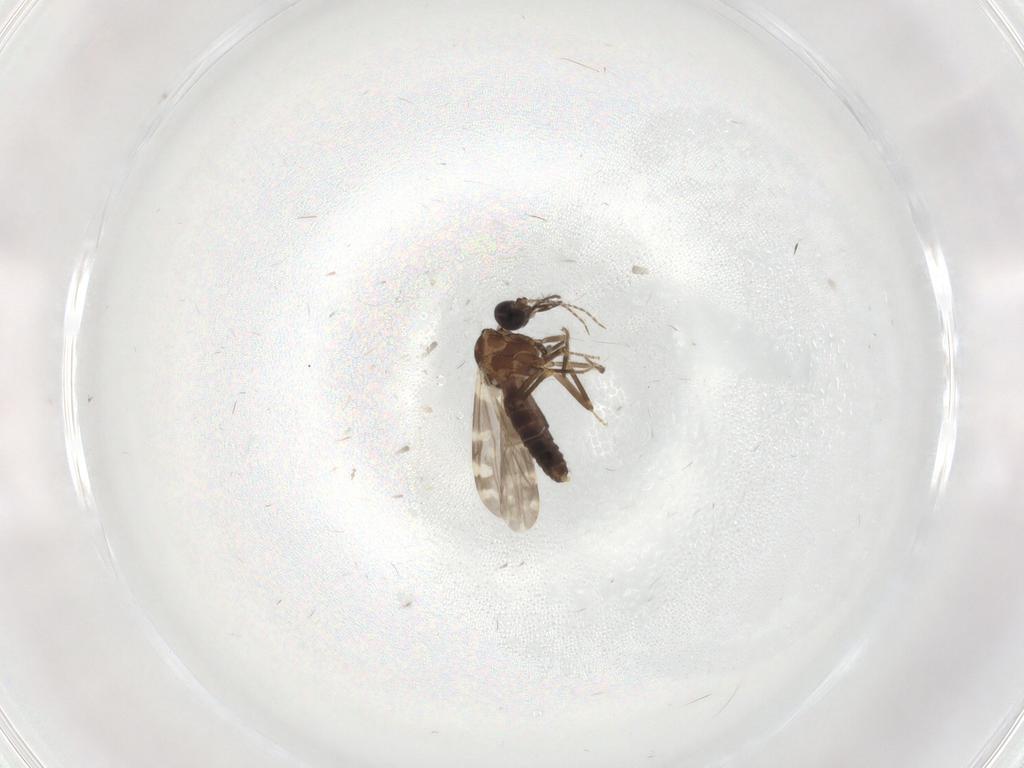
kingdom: Animalia
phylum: Arthropoda
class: Insecta
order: Diptera
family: Ceratopogonidae
